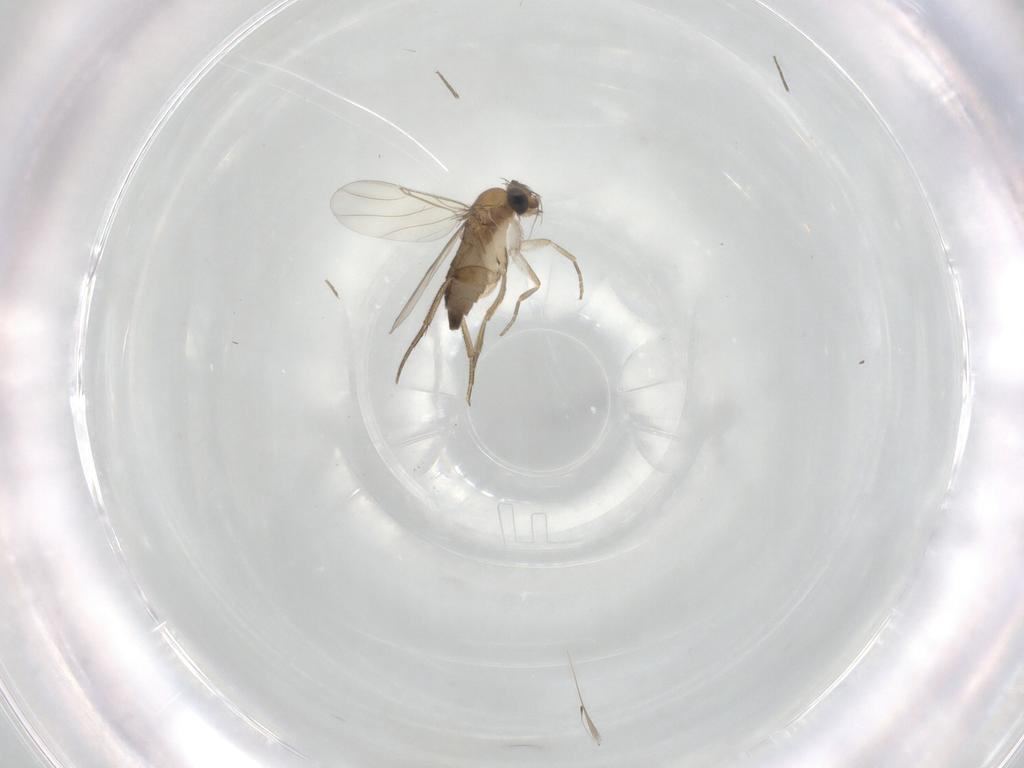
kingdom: Animalia
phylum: Arthropoda
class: Insecta
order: Diptera
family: Phoridae
